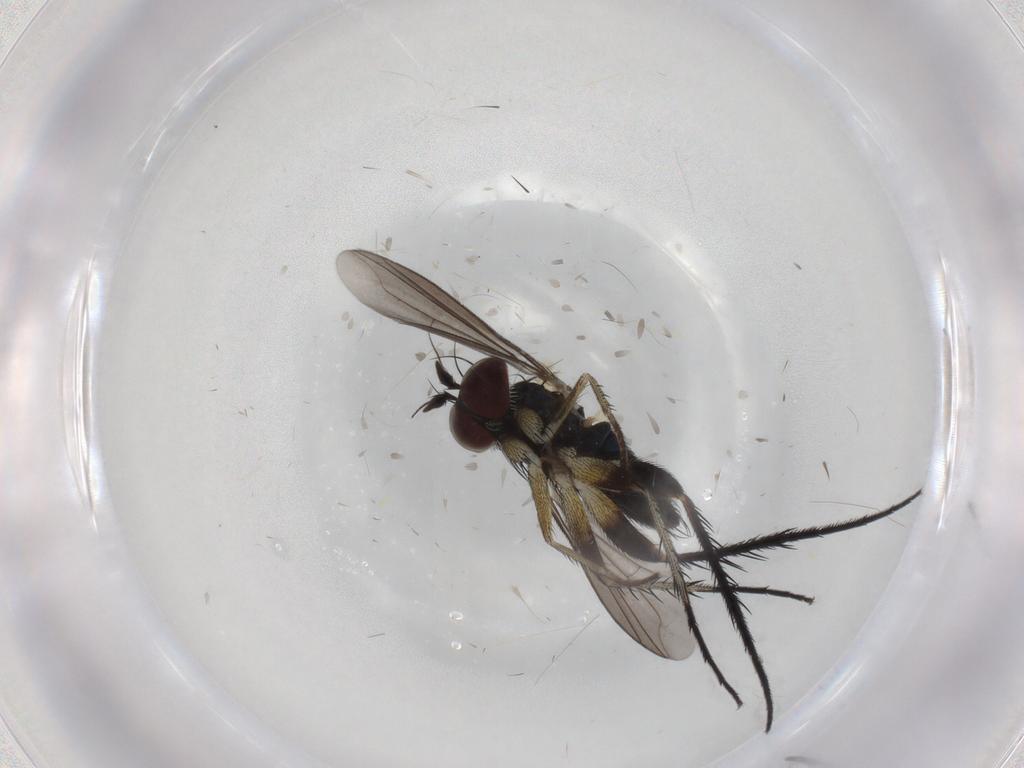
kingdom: Animalia
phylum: Arthropoda
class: Insecta
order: Diptera
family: Dolichopodidae
